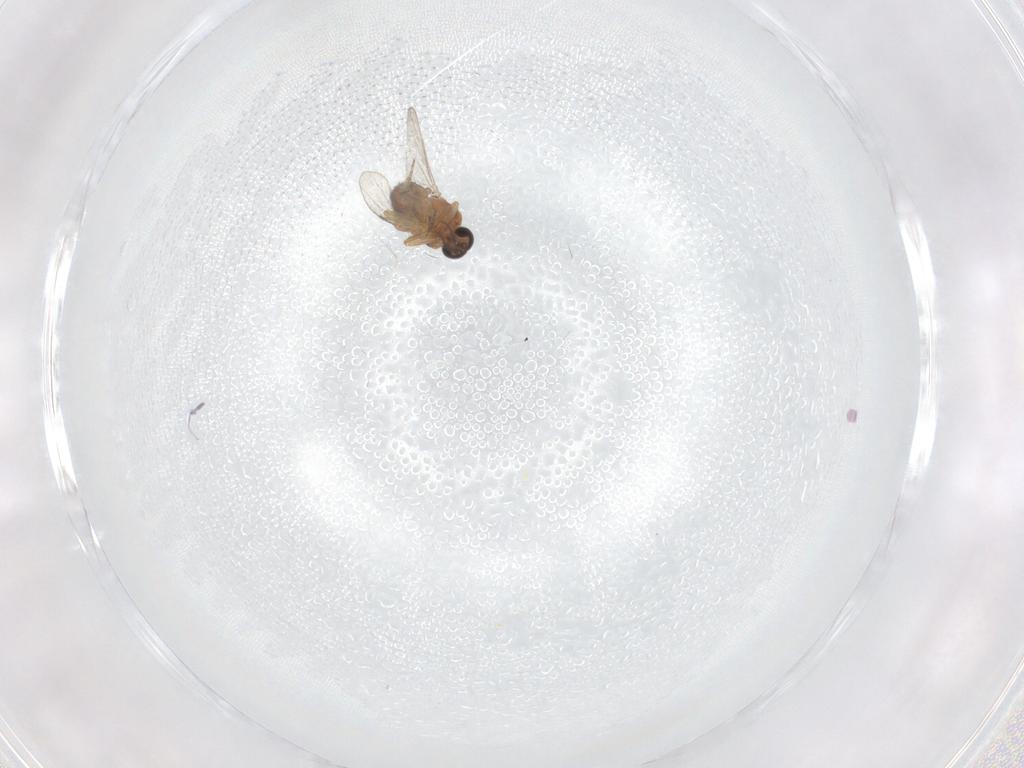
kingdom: Animalia
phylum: Arthropoda
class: Insecta
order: Diptera
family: Ceratopogonidae
